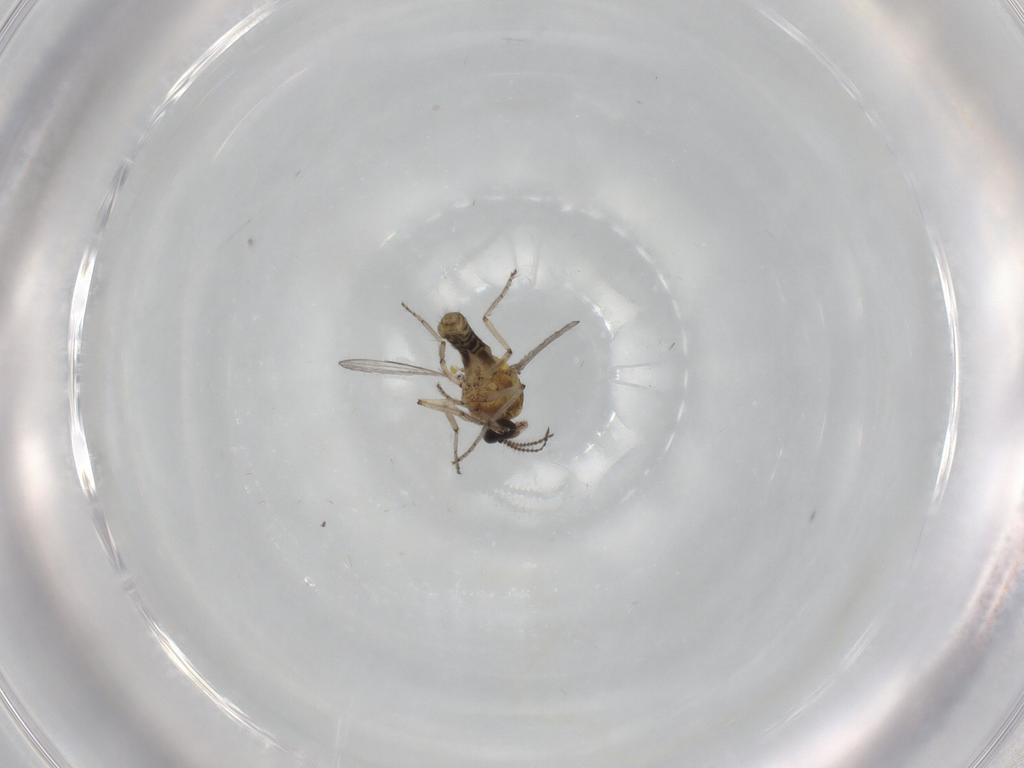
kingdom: Animalia
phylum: Arthropoda
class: Insecta
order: Diptera
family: Ceratopogonidae
